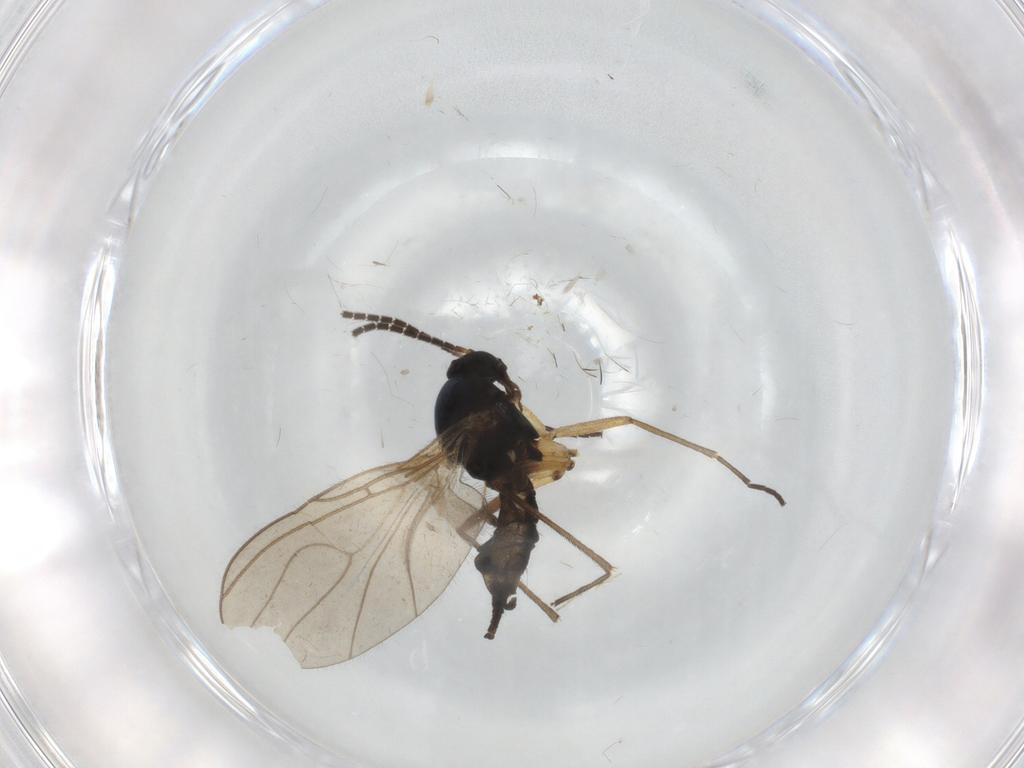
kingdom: Animalia
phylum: Arthropoda
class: Insecta
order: Diptera
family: Sciaridae
